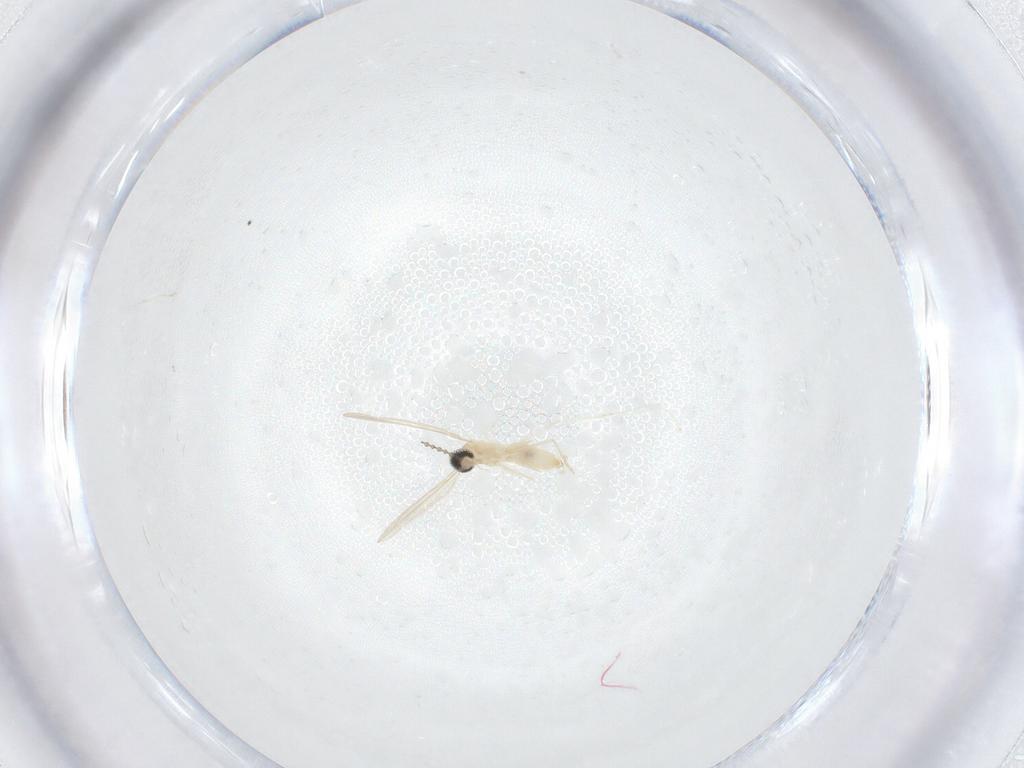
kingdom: Animalia
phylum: Arthropoda
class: Insecta
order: Diptera
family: Cecidomyiidae
